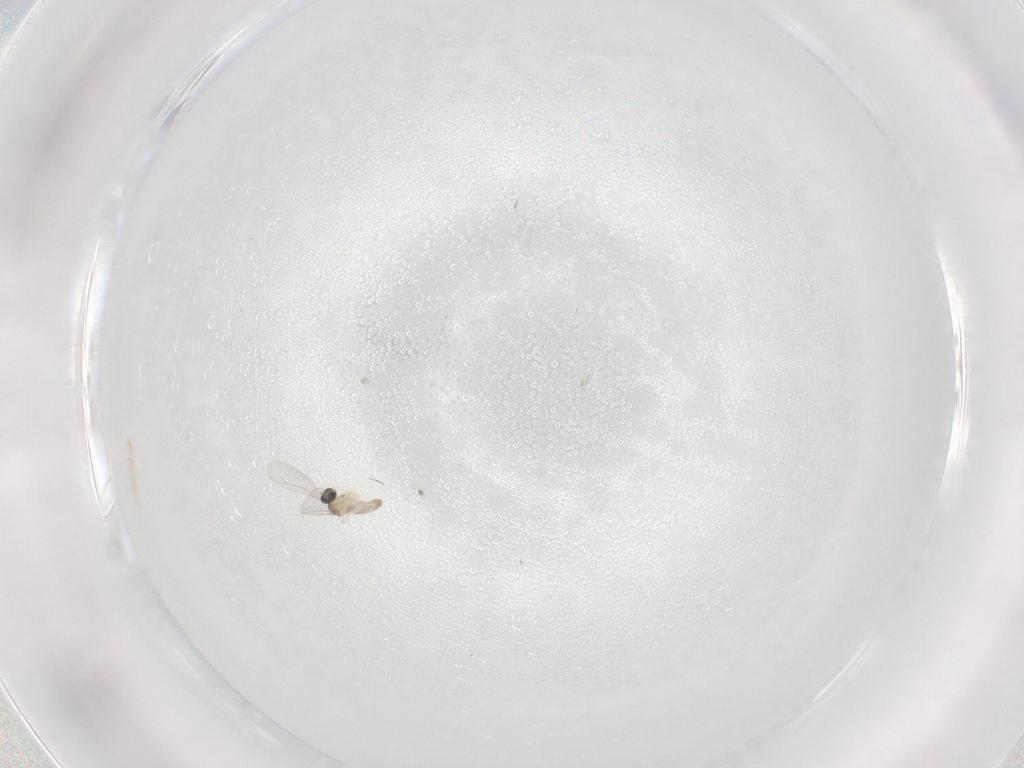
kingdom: Animalia
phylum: Arthropoda
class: Insecta
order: Diptera
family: Cecidomyiidae
